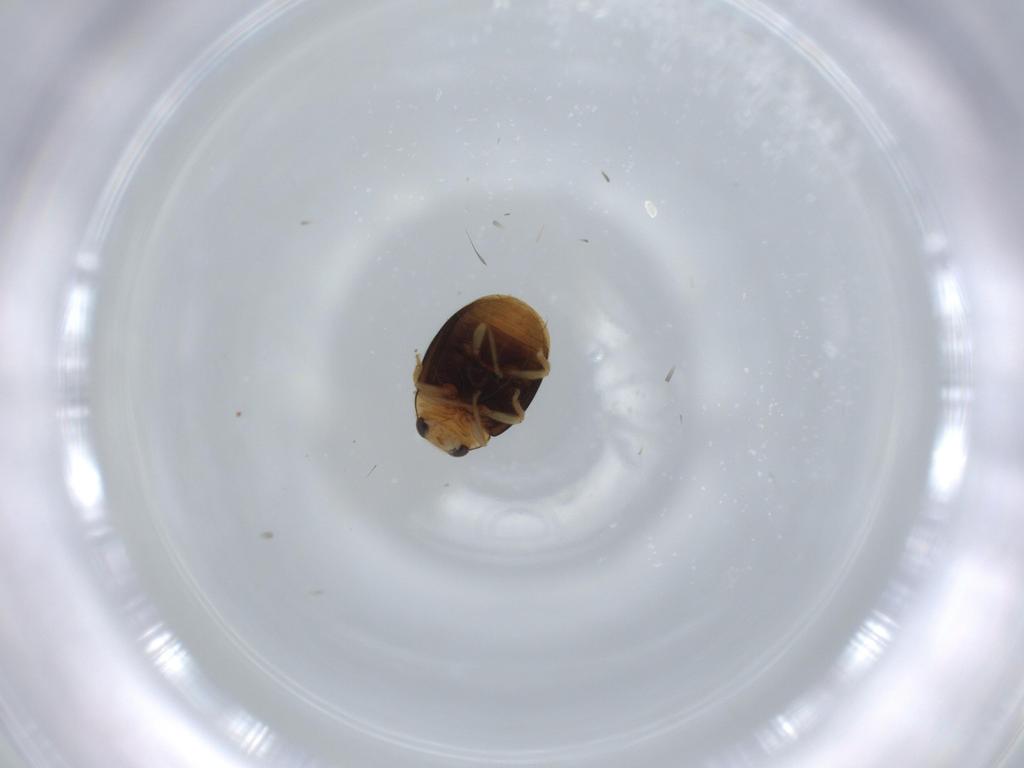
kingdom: Animalia
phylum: Arthropoda
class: Insecta
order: Coleoptera
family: Coccinellidae
